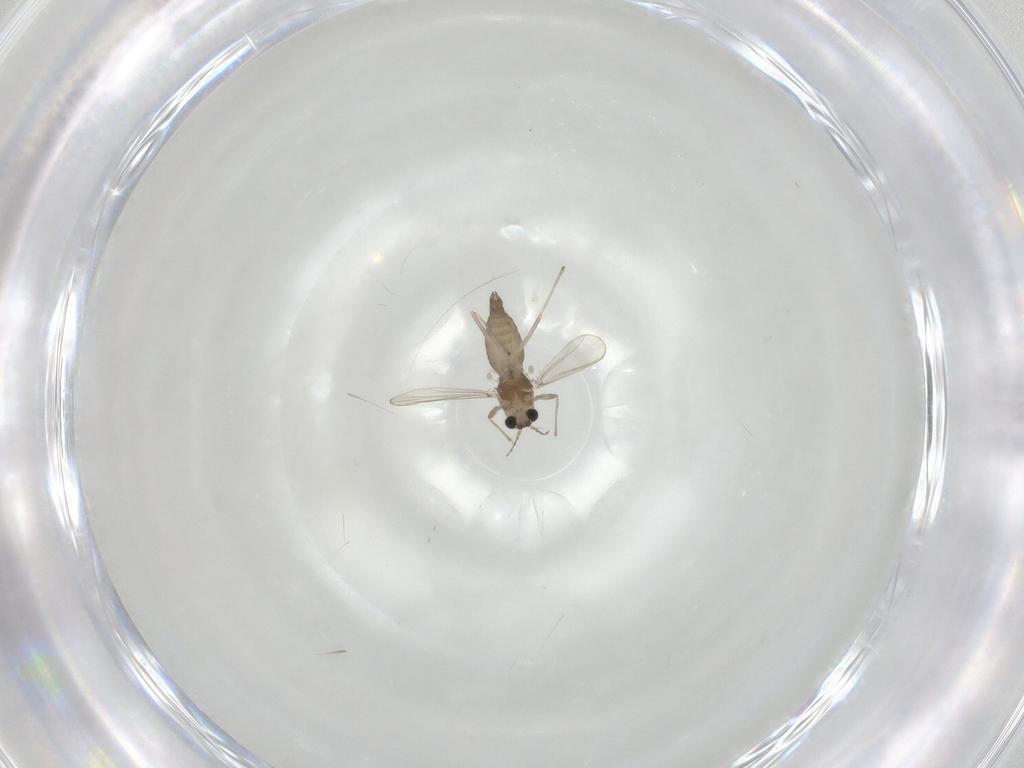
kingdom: Animalia
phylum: Arthropoda
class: Insecta
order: Diptera
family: Chironomidae
